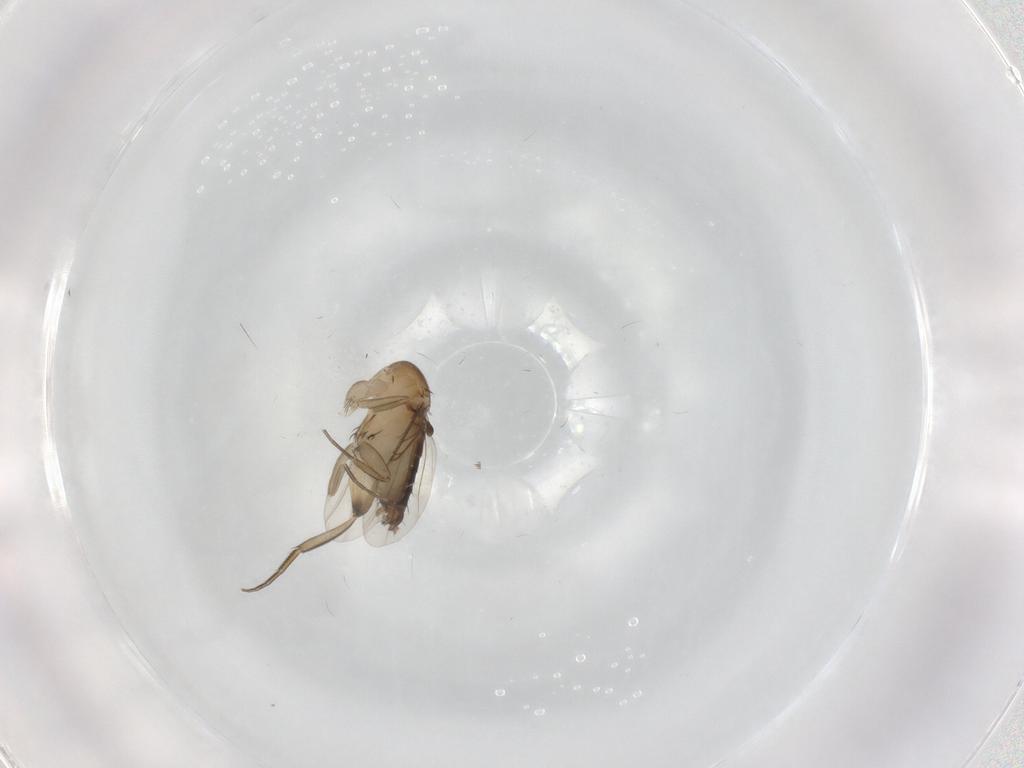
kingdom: Animalia
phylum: Arthropoda
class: Insecta
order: Diptera
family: Phoridae
